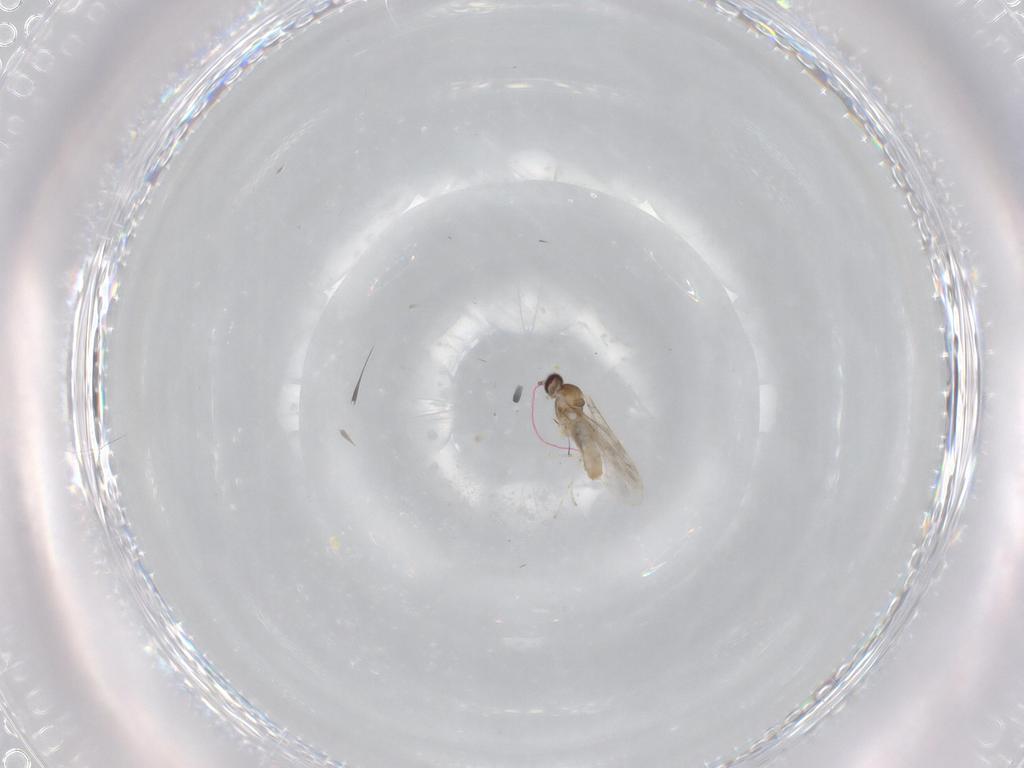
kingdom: Animalia
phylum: Arthropoda
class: Insecta
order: Diptera
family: Cecidomyiidae
